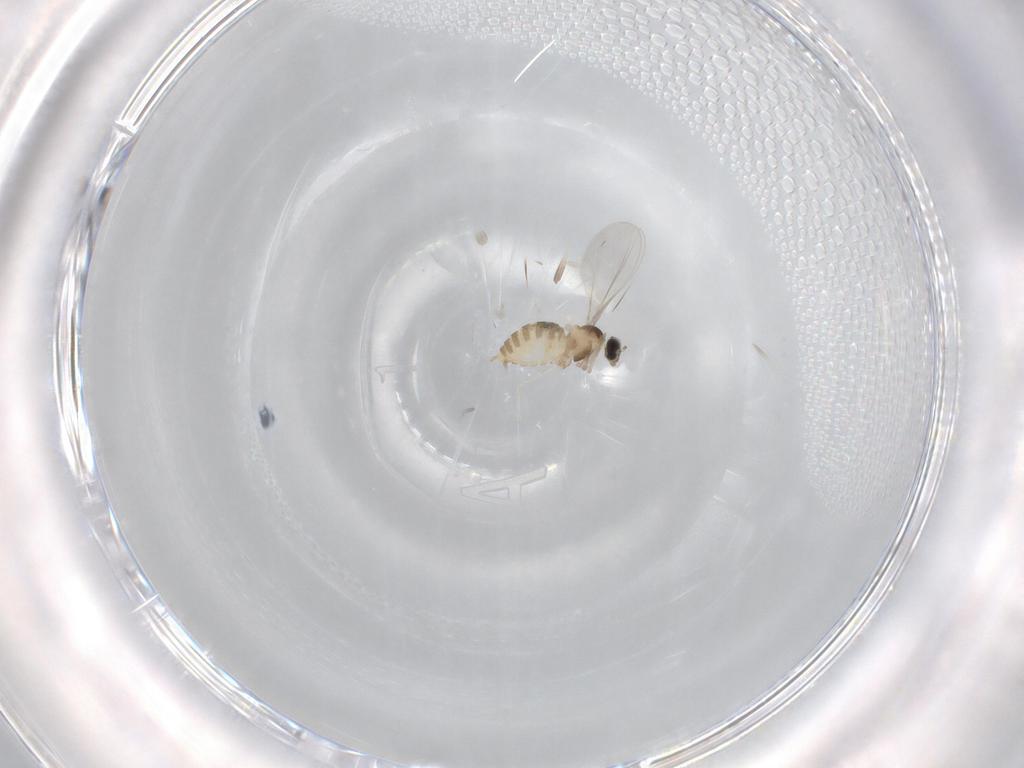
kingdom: Animalia
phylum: Arthropoda
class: Insecta
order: Diptera
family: Cecidomyiidae
